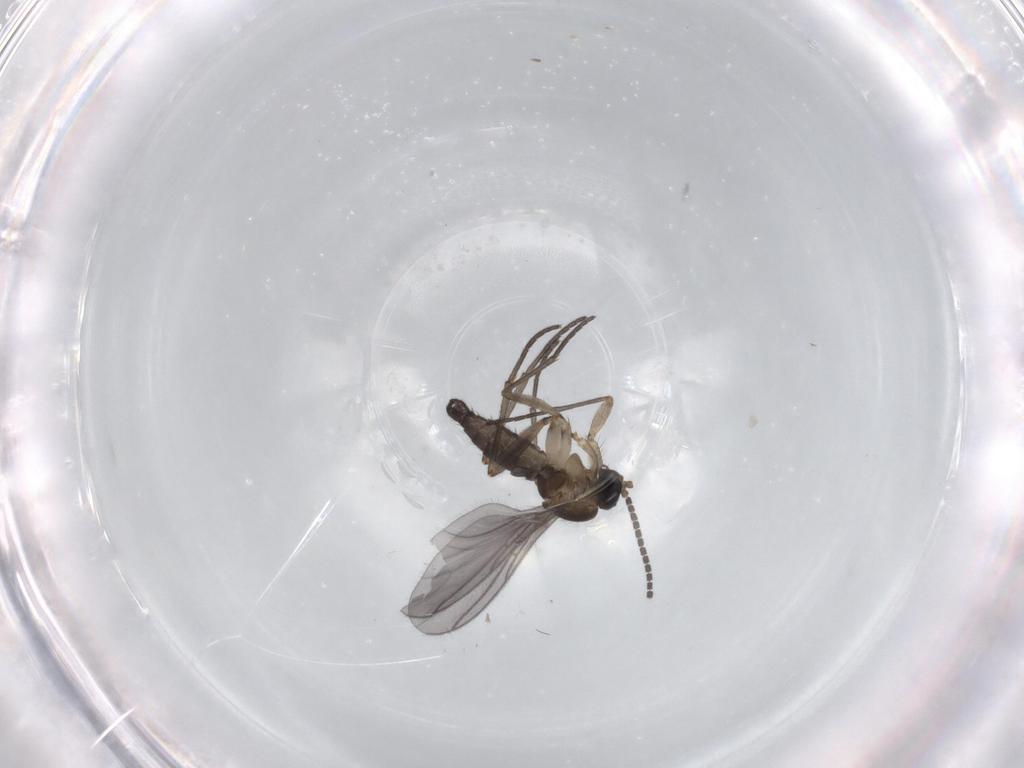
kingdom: Animalia
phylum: Arthropoda
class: Insecta
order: Diptera
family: Sciaridae
